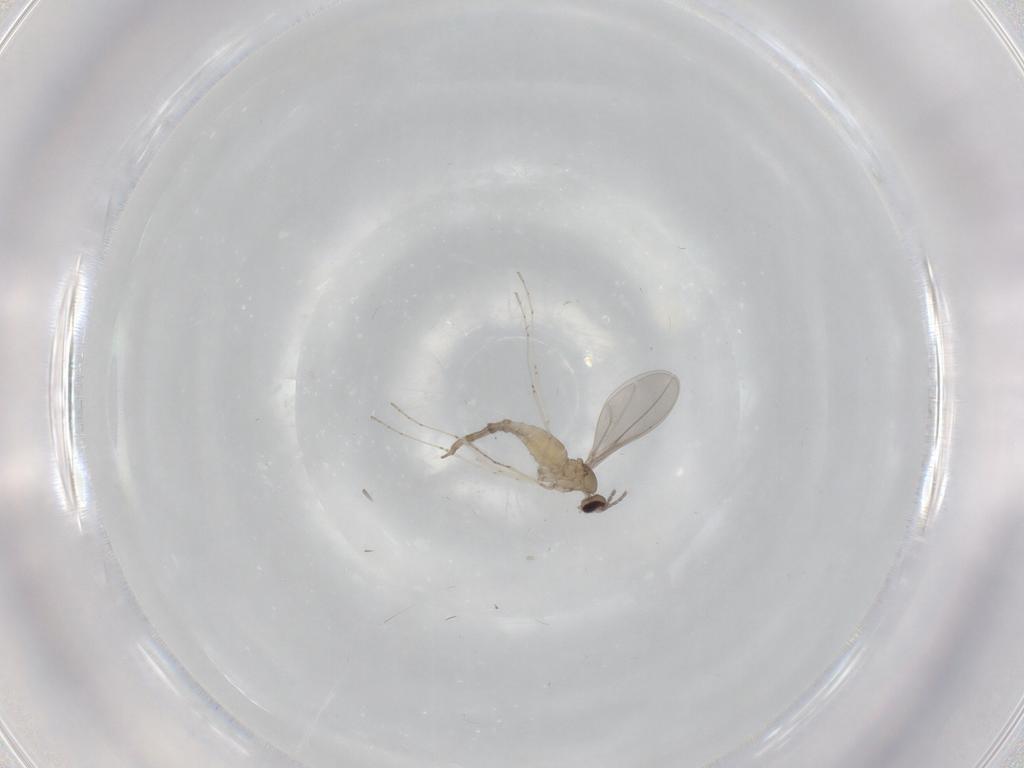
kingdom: Animalia
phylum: Arthropoda
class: Insecta
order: Diptera
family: Cecidomyiidae
